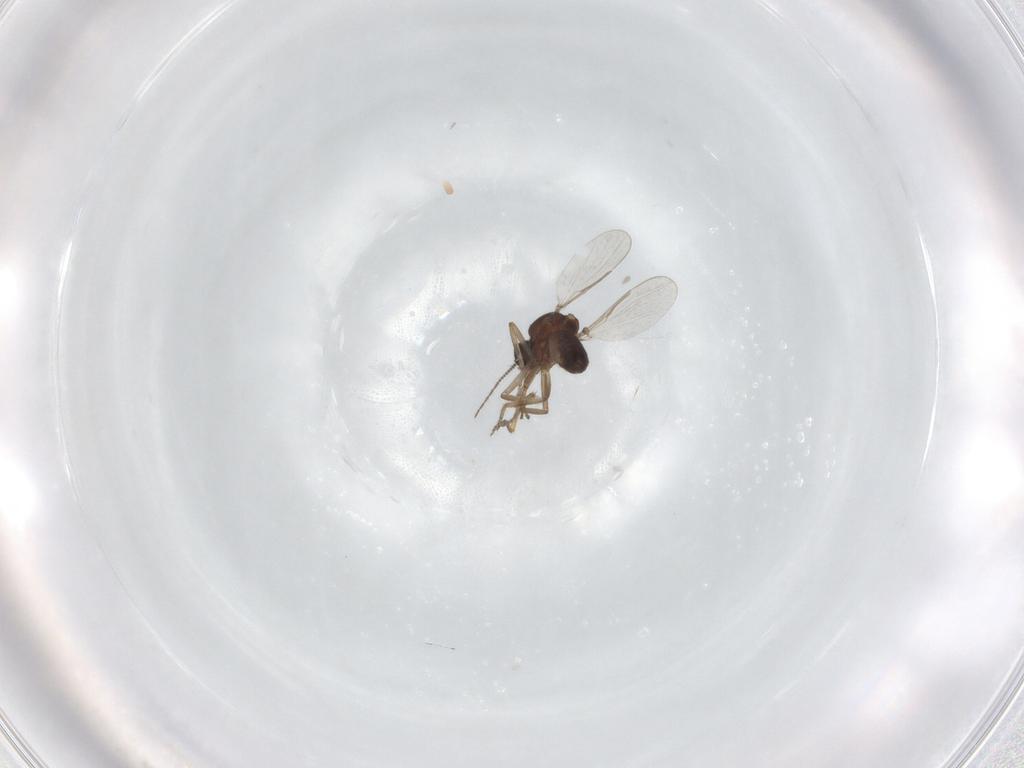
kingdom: Animalia
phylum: Arthropoda
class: Insecta
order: Diptera
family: Ceratopogonidae
